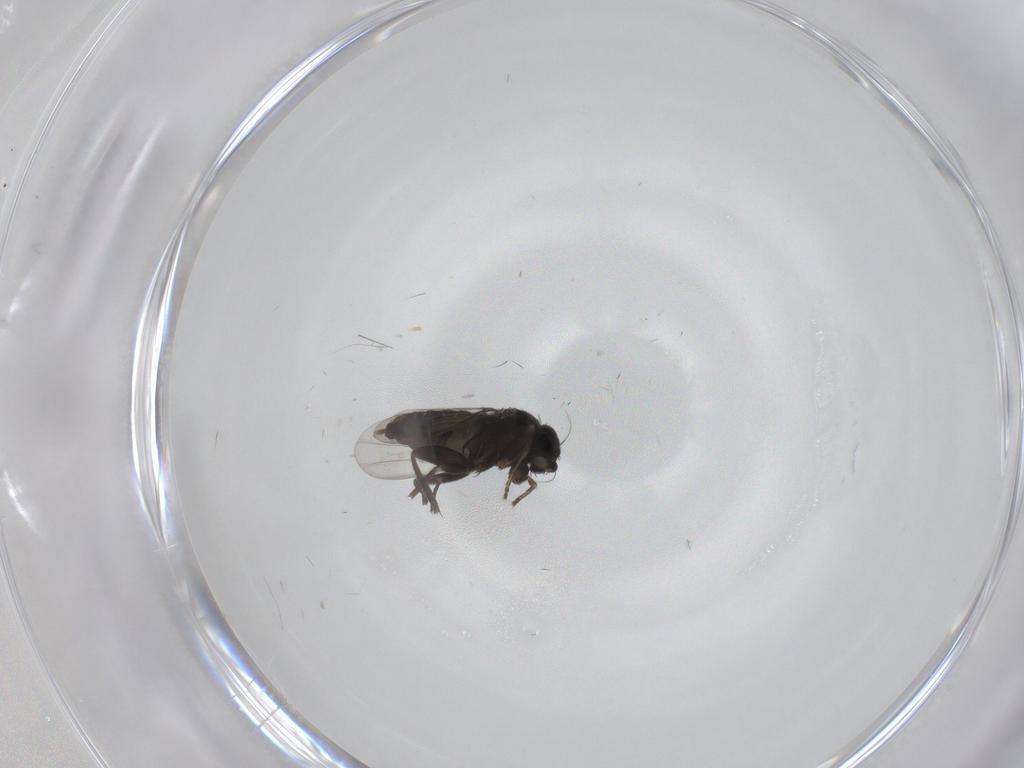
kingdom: Animalia
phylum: Arthropoda
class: Insecta
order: Diptera
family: Phoridae
